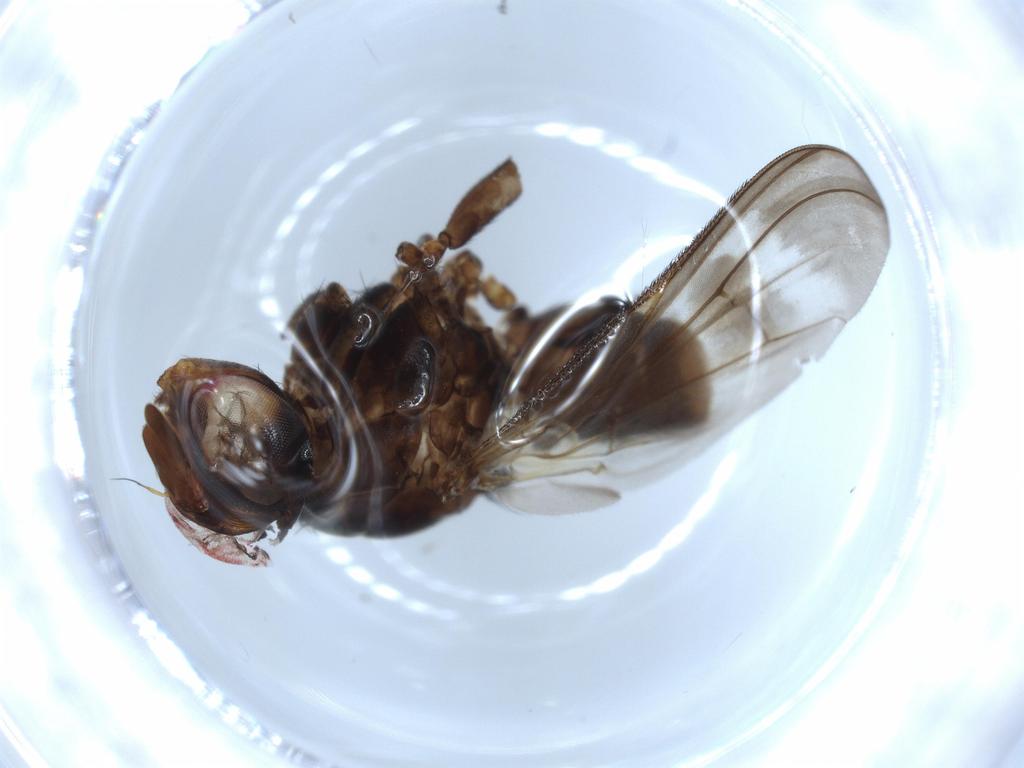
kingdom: Animalia
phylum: Arthropoda
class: Insecta
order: Diptera
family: Calliphoridae
